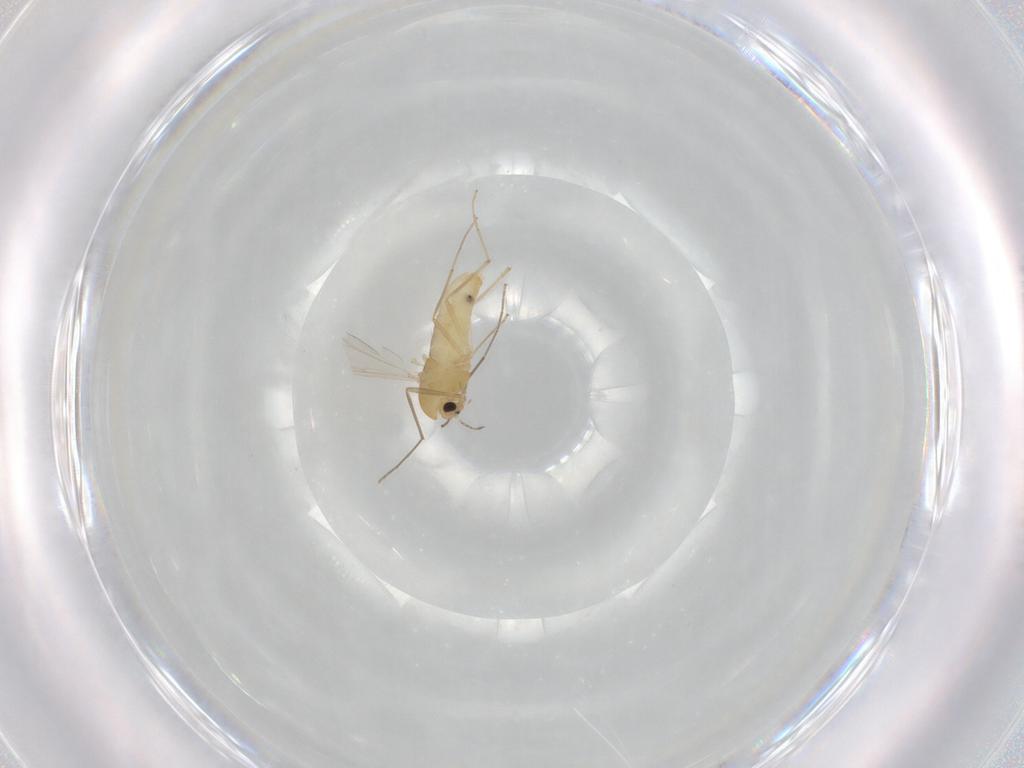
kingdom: Animalia
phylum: Arthropoda
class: Insecta
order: Diptera
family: Chironomidae
